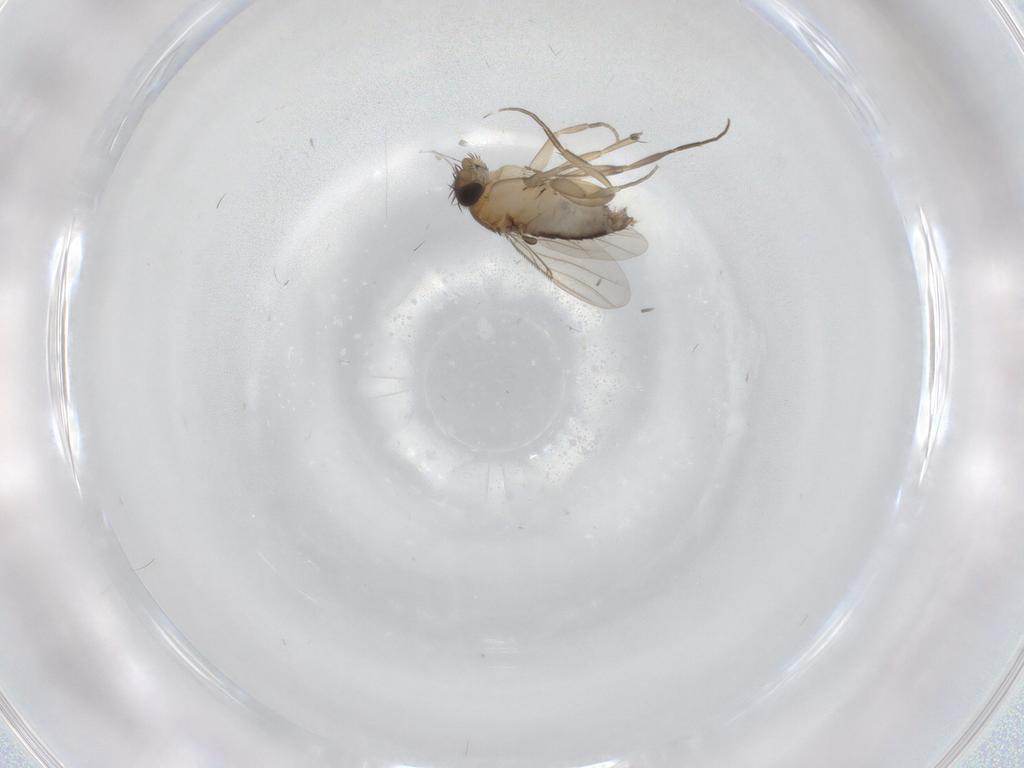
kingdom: Animalia
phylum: Arthropoda
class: Insecta
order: Diptera
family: Phoridae
